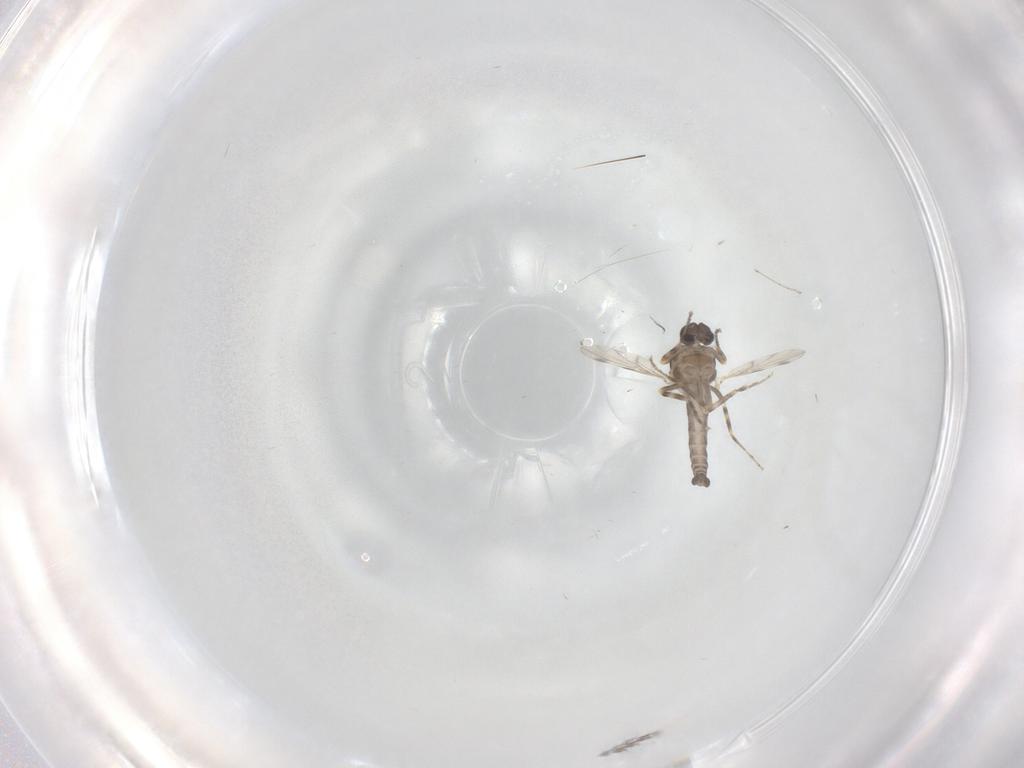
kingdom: Animalia
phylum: Arthropoda
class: Insecta
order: Diptera
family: Ceratopogonidae
